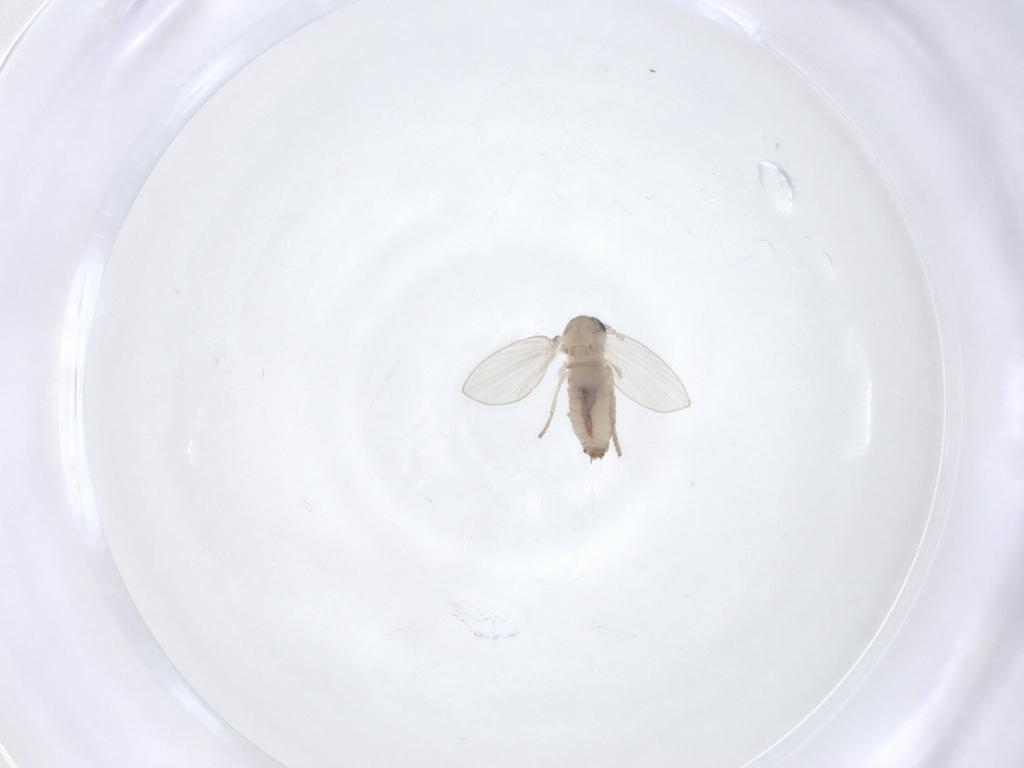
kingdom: Animalia
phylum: Arthropoda
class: Insecta
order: Diptera
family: Psychodidae
